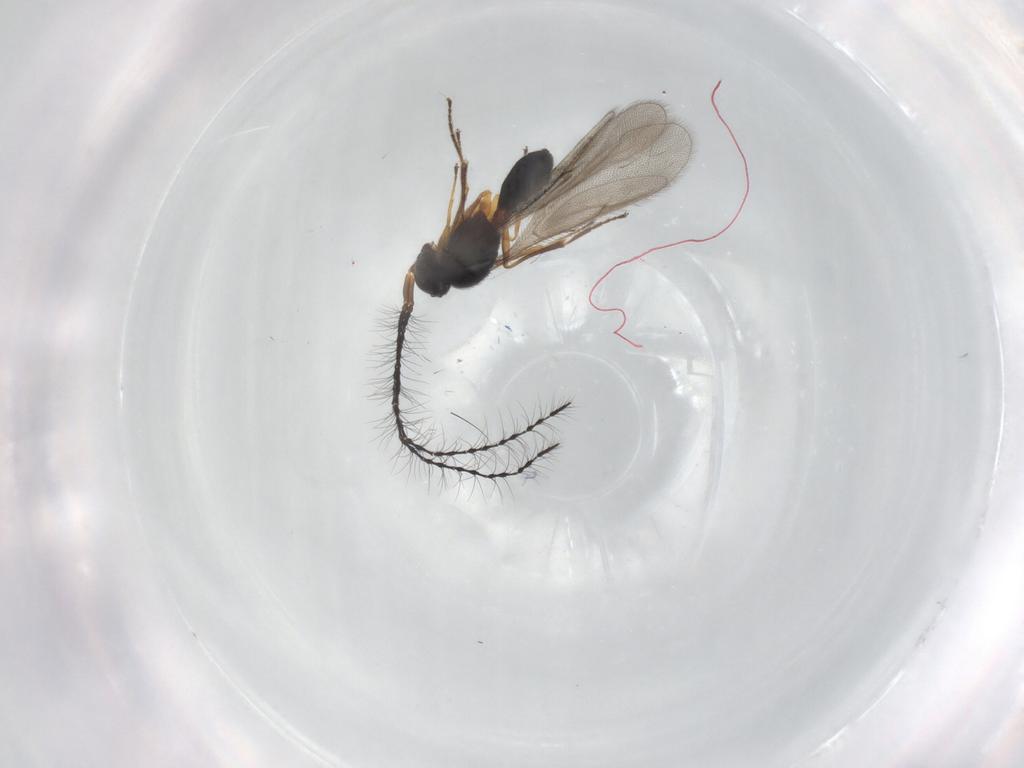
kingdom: Animalia
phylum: Arthropoda
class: Insecta
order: Hymenoptera
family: Scelionidae
